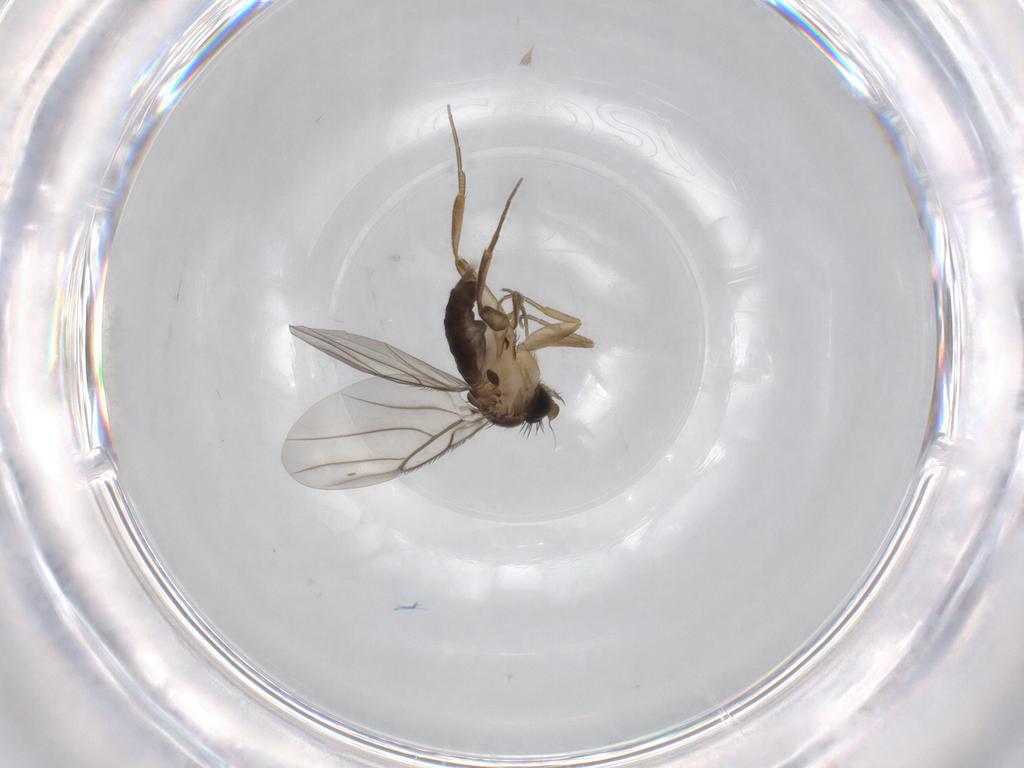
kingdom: Animalia
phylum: Arthropoda
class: Insecta
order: Diptera
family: Phoridae
